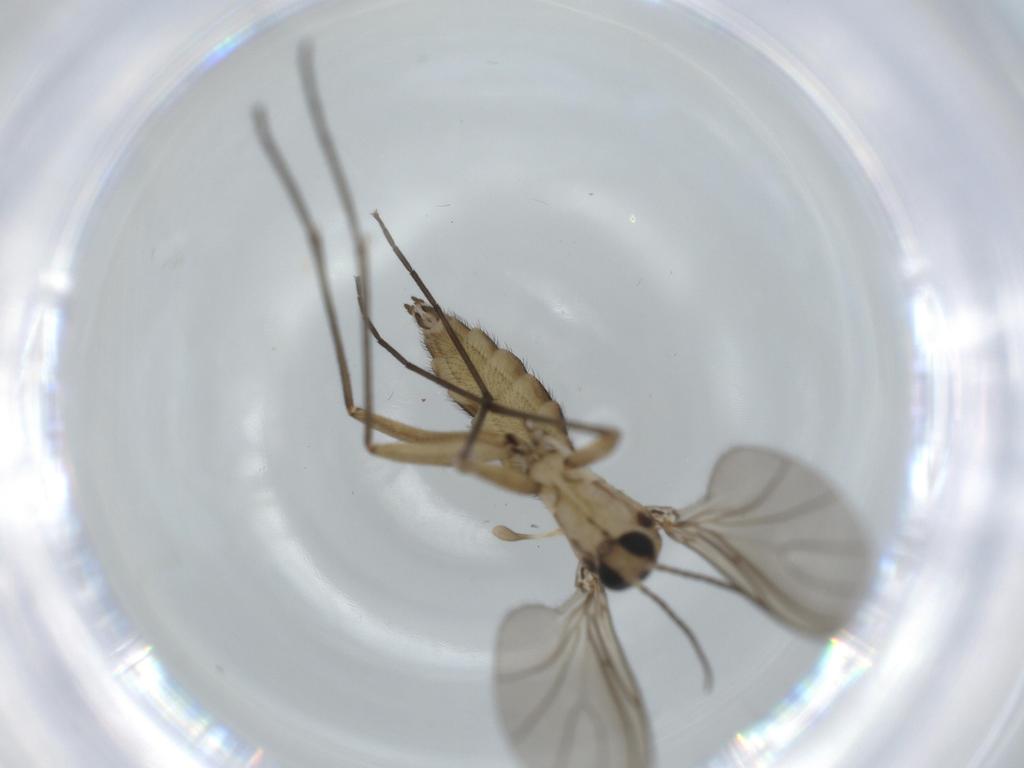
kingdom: Animalia
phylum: Arthropoda
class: Insecta
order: Diptera
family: Sciaridae
